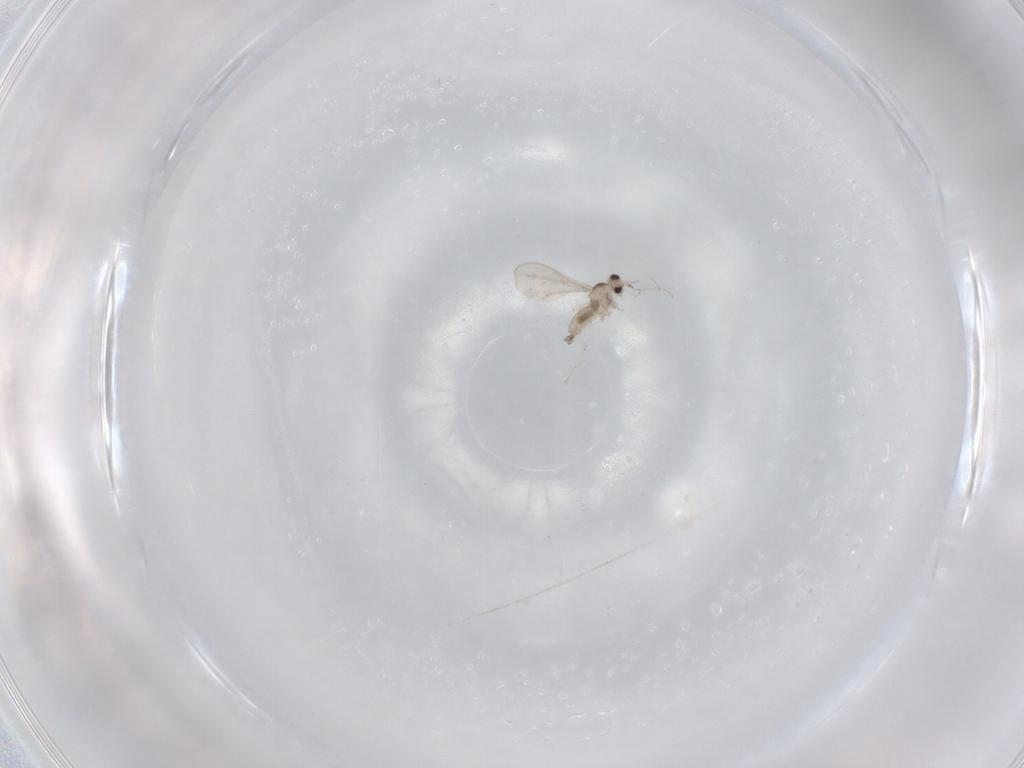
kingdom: Animalia
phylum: Arthropoda
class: Insecta
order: Diptera
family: Cecidomyiidae
